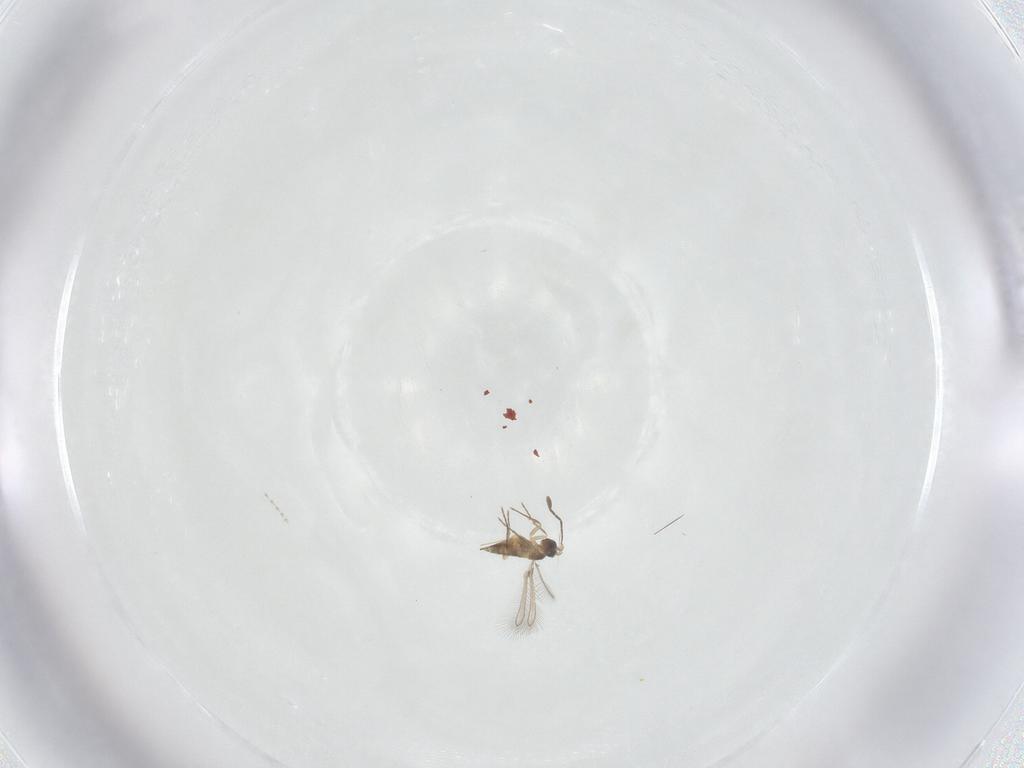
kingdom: Animalia
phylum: Arthropoda
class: Insecta
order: Hymenoptera
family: Mymaridae
